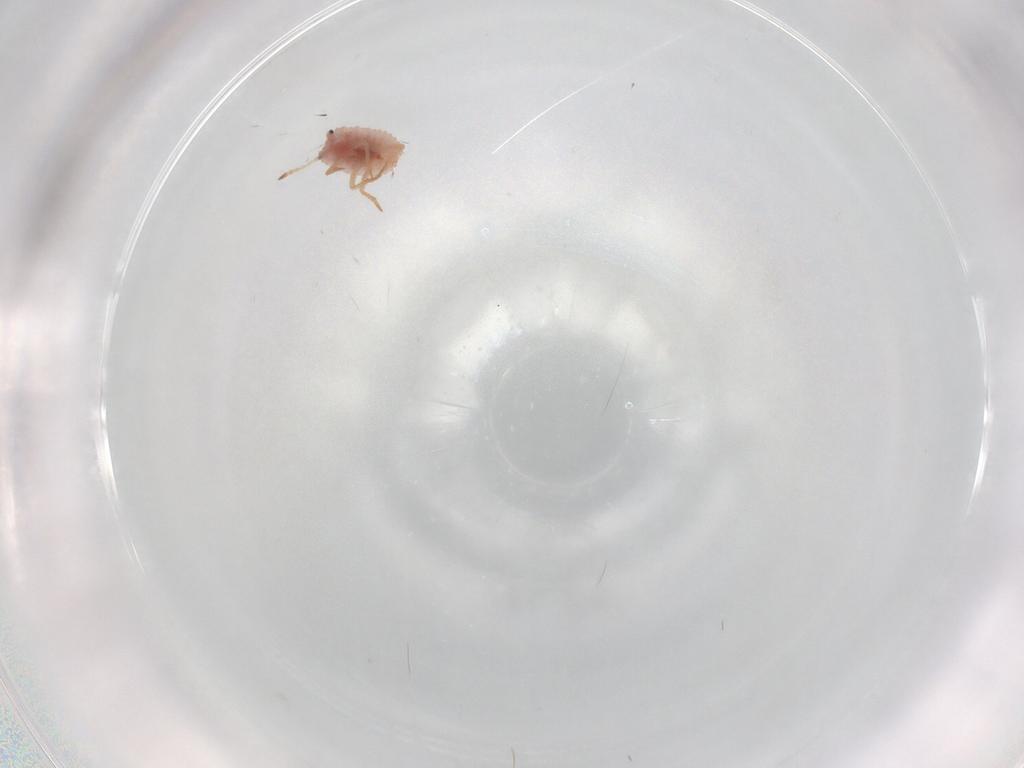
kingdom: Animalia
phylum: Arthropoda
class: Insecta
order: Hemiptera
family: Coccoidea_incertae_sedis
